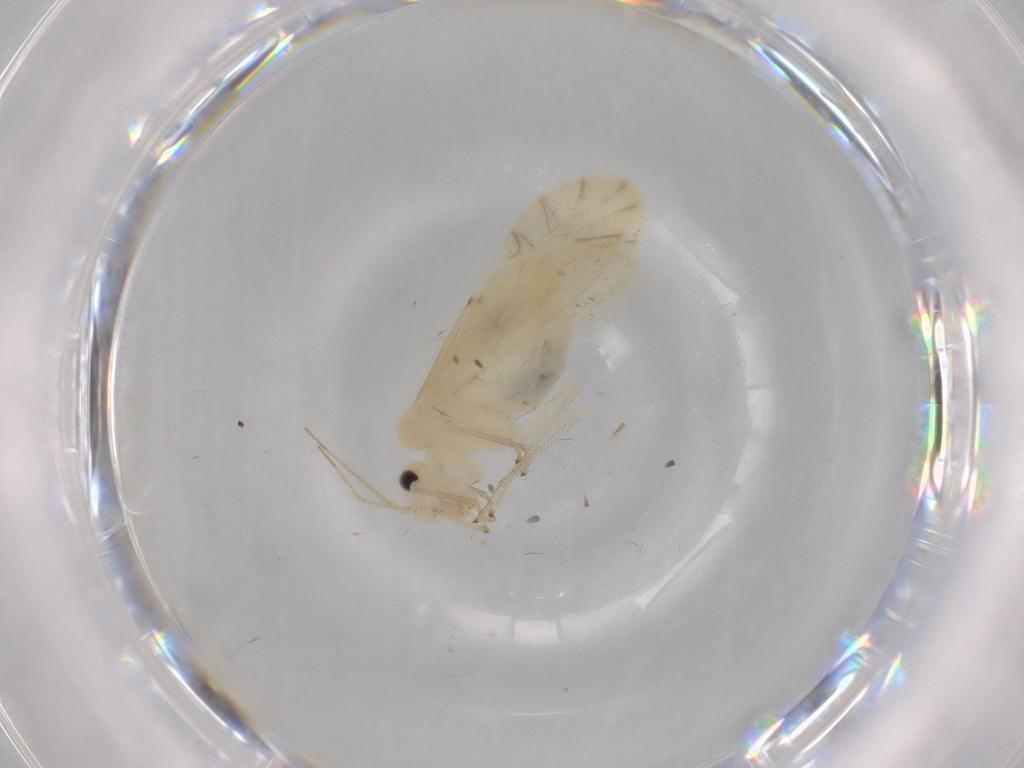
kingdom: Animalia
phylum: Arthropoda
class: Insecta
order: Psocodea
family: Caeciliusidae
